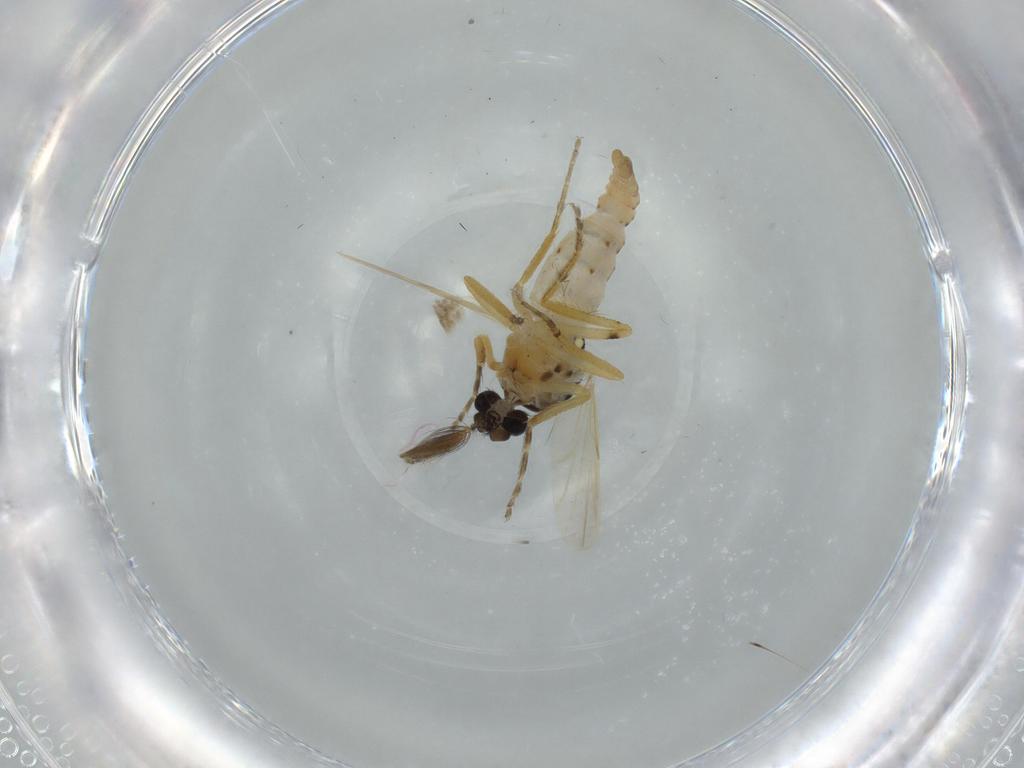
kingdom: Animalia
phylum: Arthropoda
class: Insecta
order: Diptera
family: Ceratopogonidae
